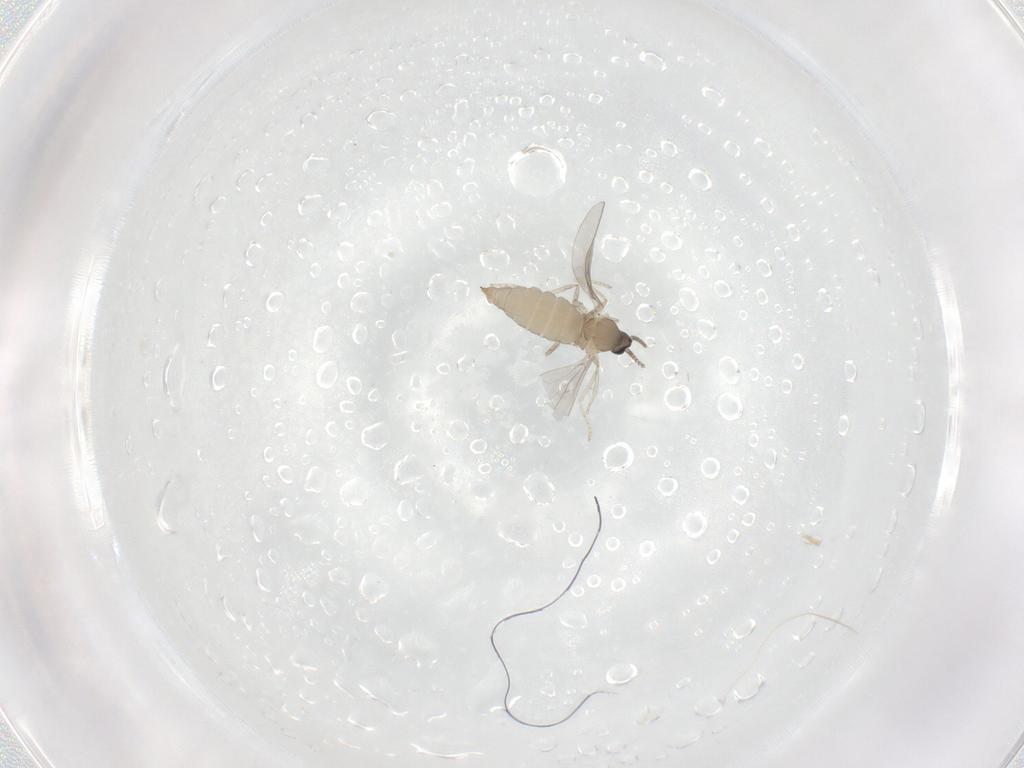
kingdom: Animalia
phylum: Arthropoda
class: Insecta
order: Diptera
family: Cecidomyiidae
